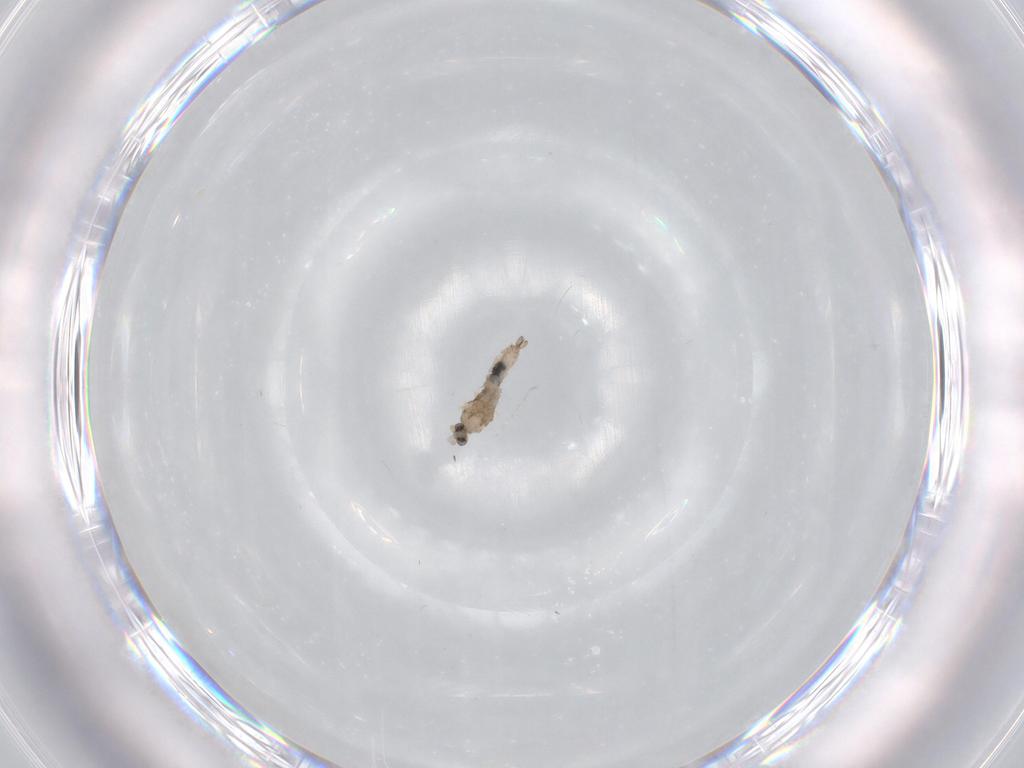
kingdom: Animalia
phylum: Arthropoda
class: Insecta
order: Diptera
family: Cecidomyiidae
